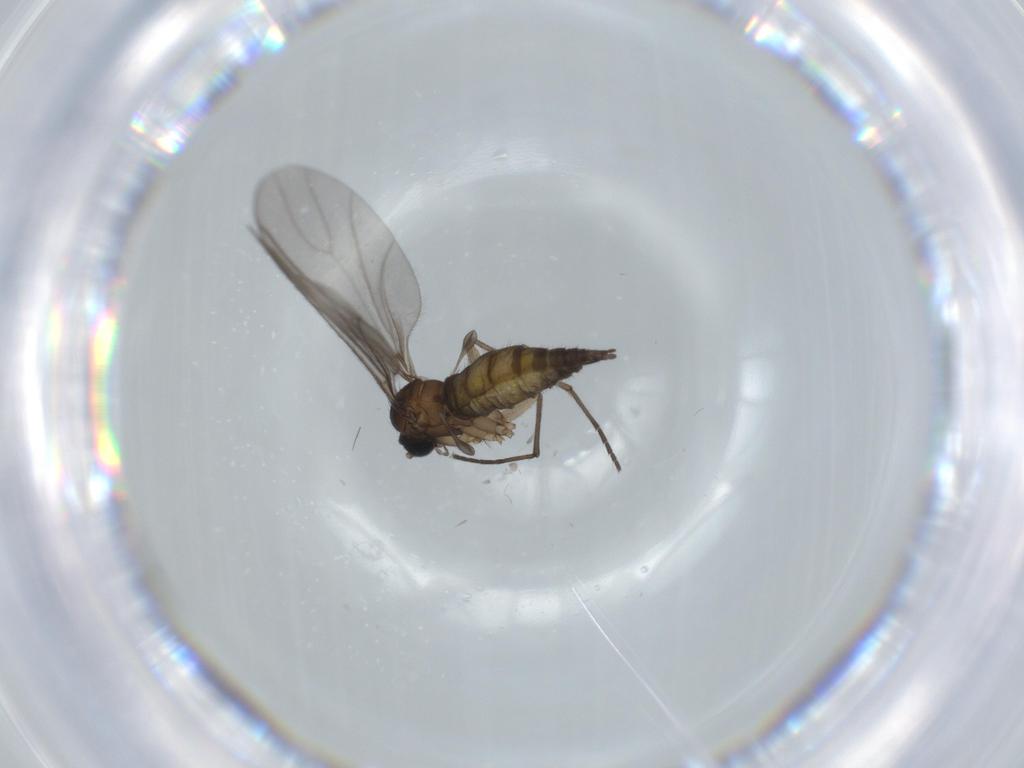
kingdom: Animalia
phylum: Arthropoda
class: Insecta
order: Diptera
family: Sciaridae
